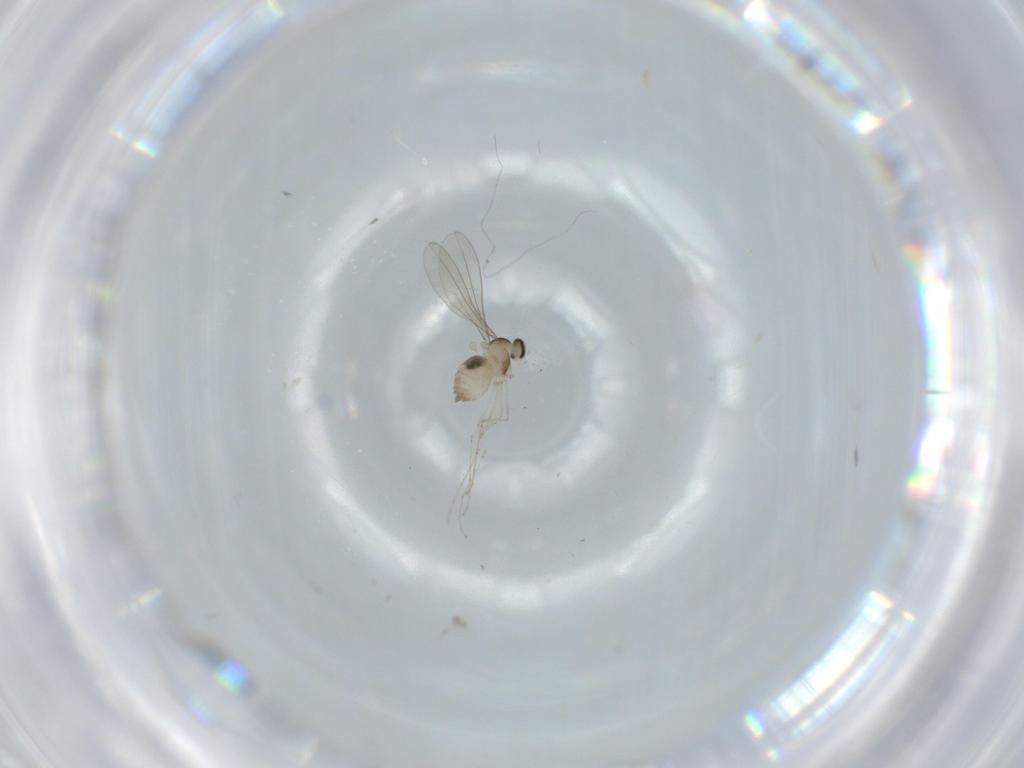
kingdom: Animalia
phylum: Arthropoda
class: Insecta
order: Diptera
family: Cecidomyiidae
